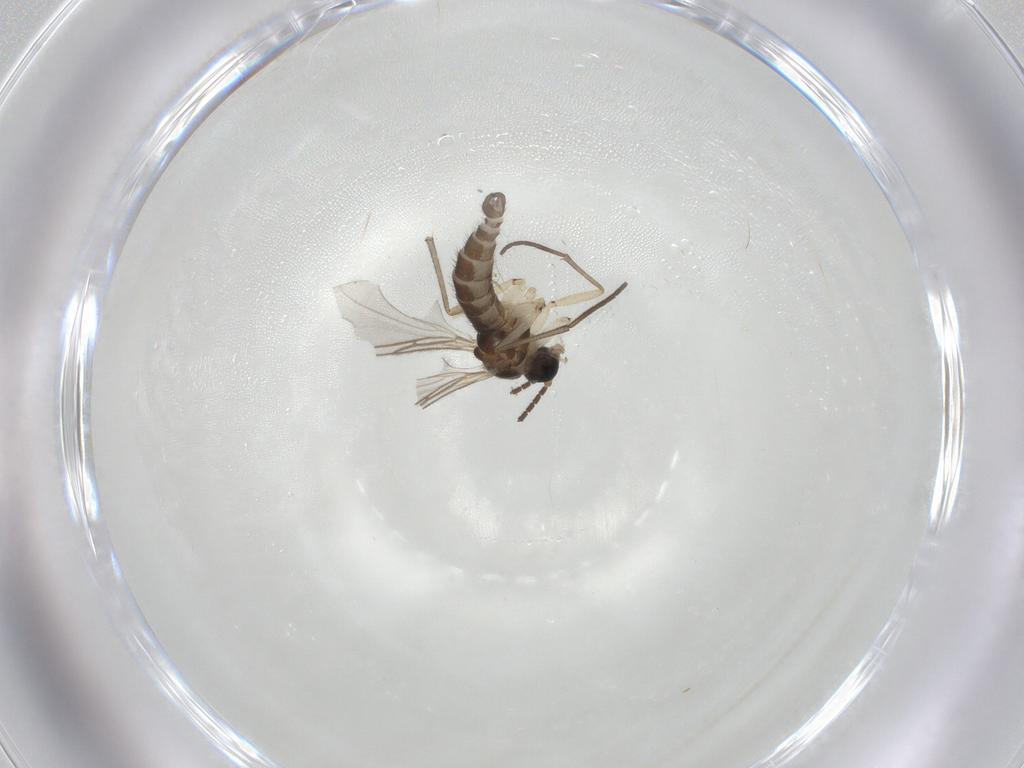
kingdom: Animalia
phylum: Arthropoda
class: Insecta
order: Diptera
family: Sciaridae
